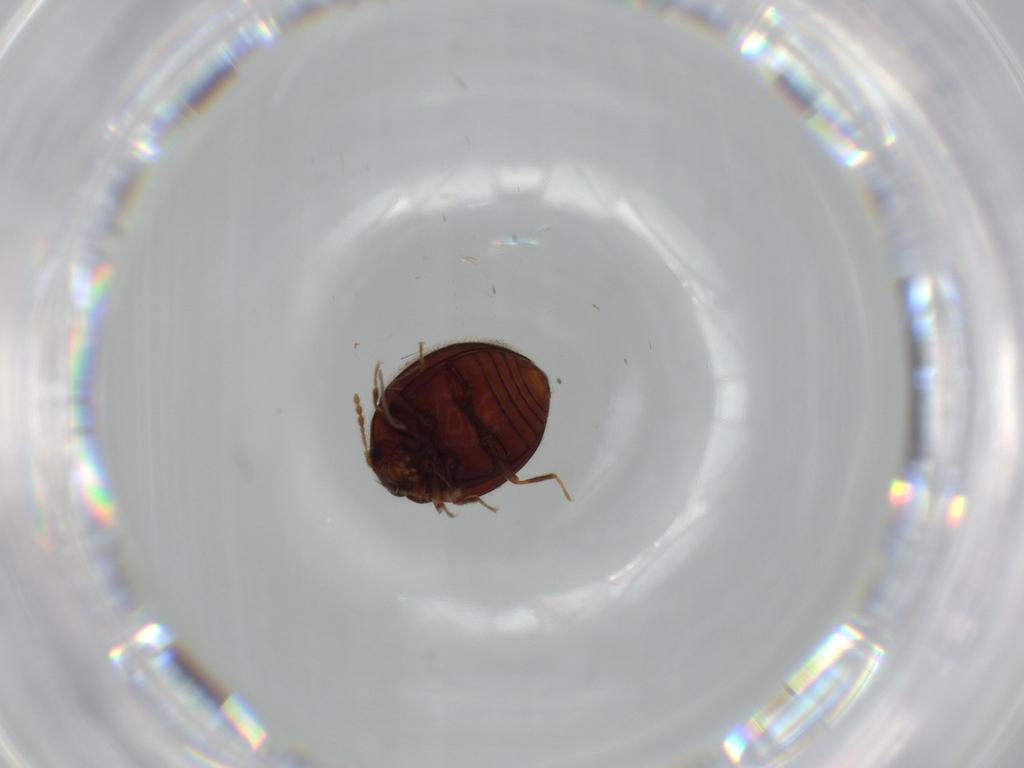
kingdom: Animalia
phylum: Arthropoda
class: Insecta
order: Coleoptera
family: Anamorphidae
